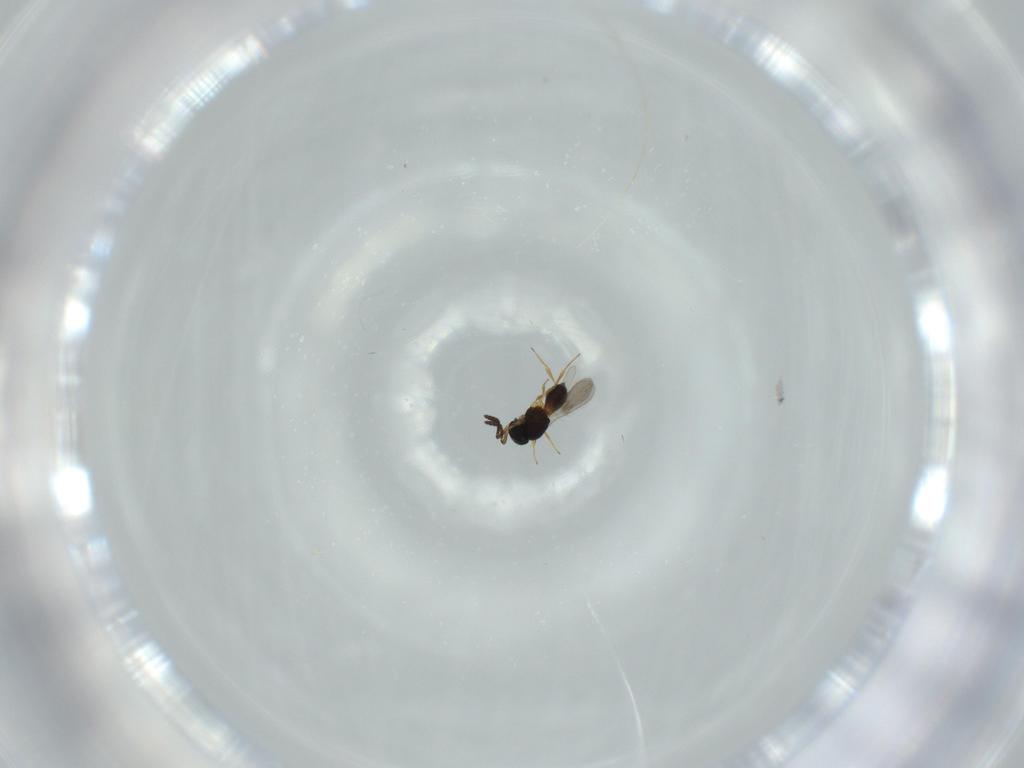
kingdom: Animalia
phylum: Arthropoda
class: Insecta
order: Hymenoptera
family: Scelionidae
